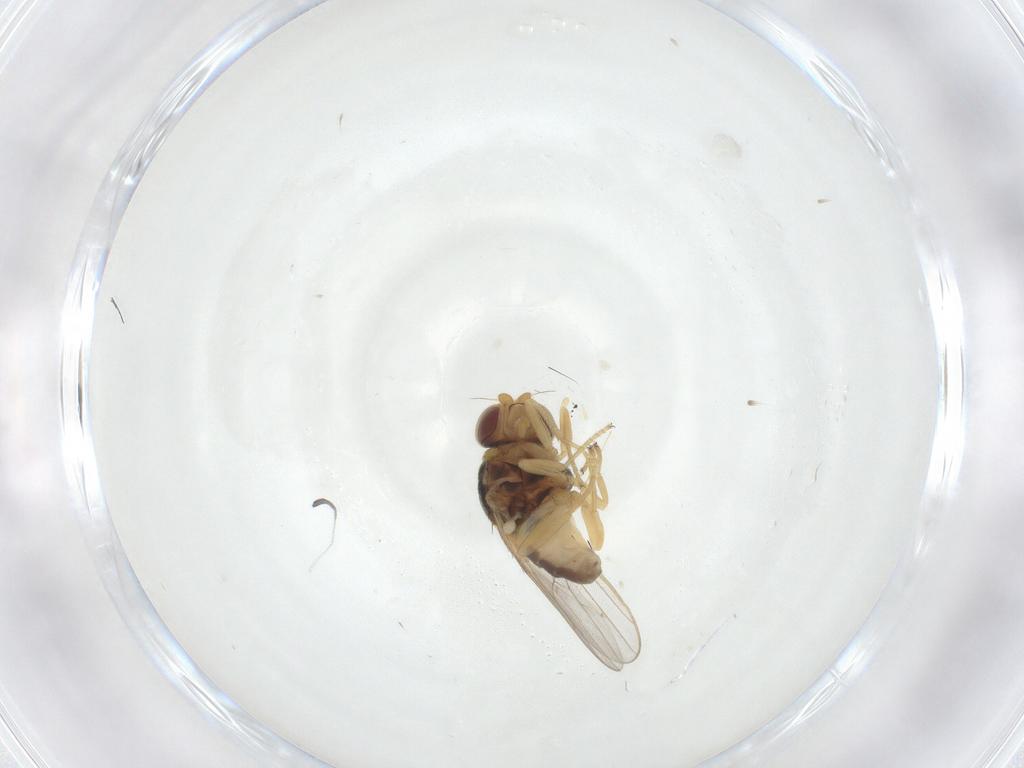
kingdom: Animalia
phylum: Arthropoda
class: Insecta
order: Diptera
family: Chloropidae
